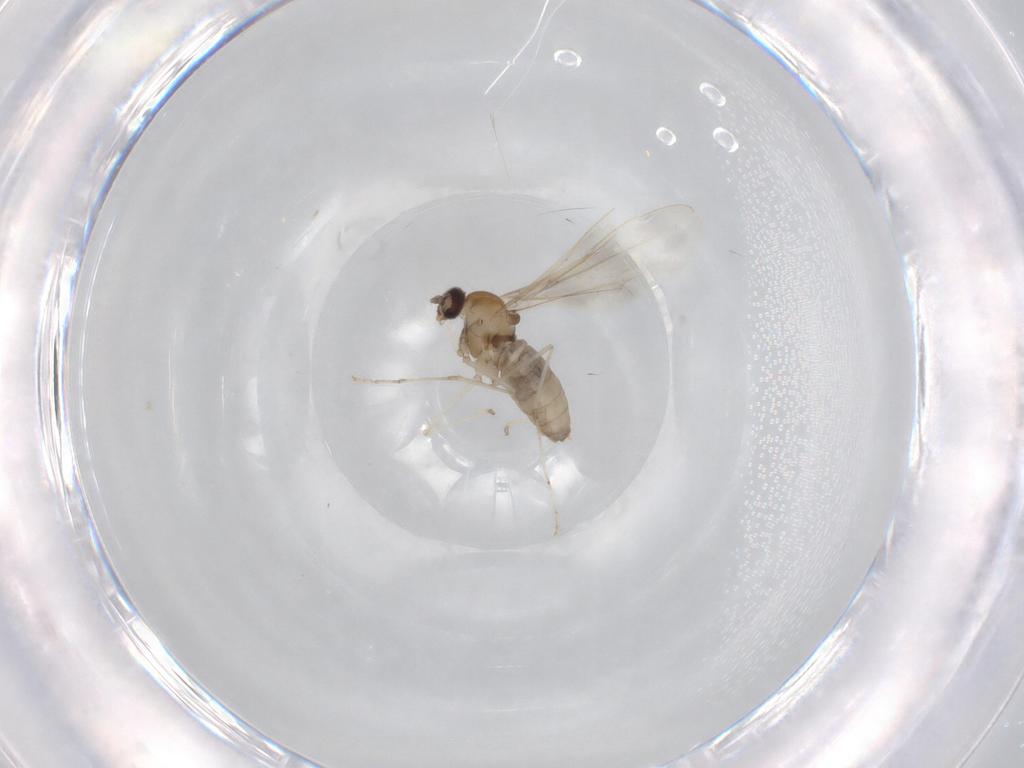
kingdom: Animalia
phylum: Arthropoda
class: Insecta
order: Diptera
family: Cecidomyiidae
